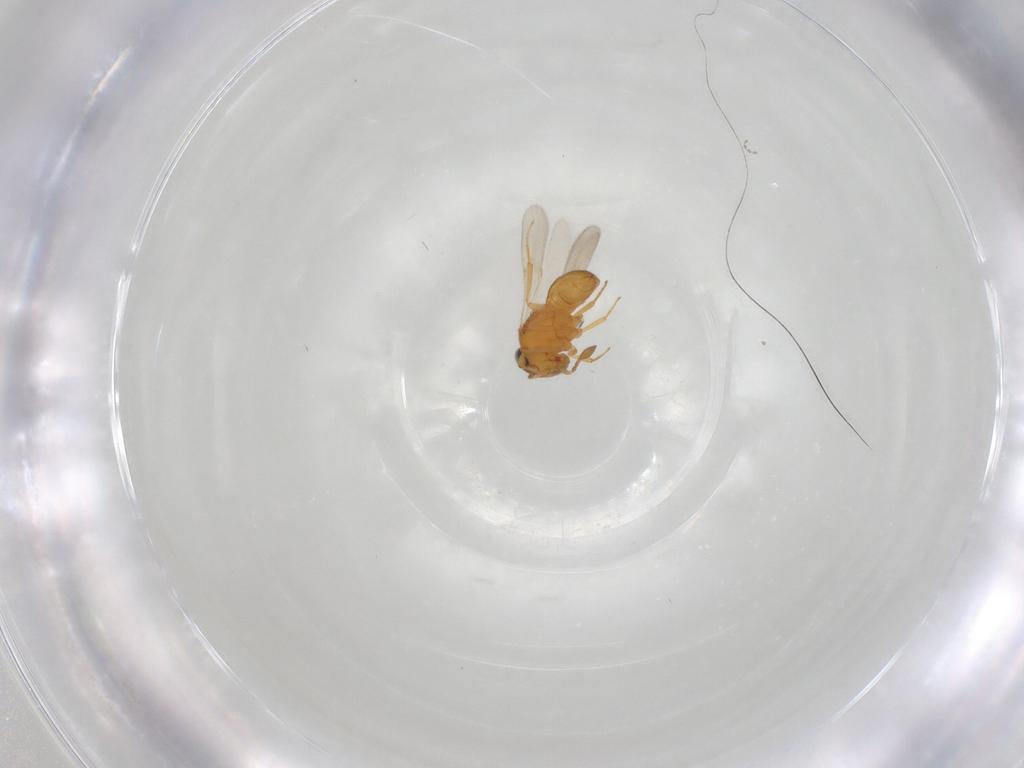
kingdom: Animalia
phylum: Arthropoda
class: Insecta
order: Hymenoptera
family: Scelionidae
